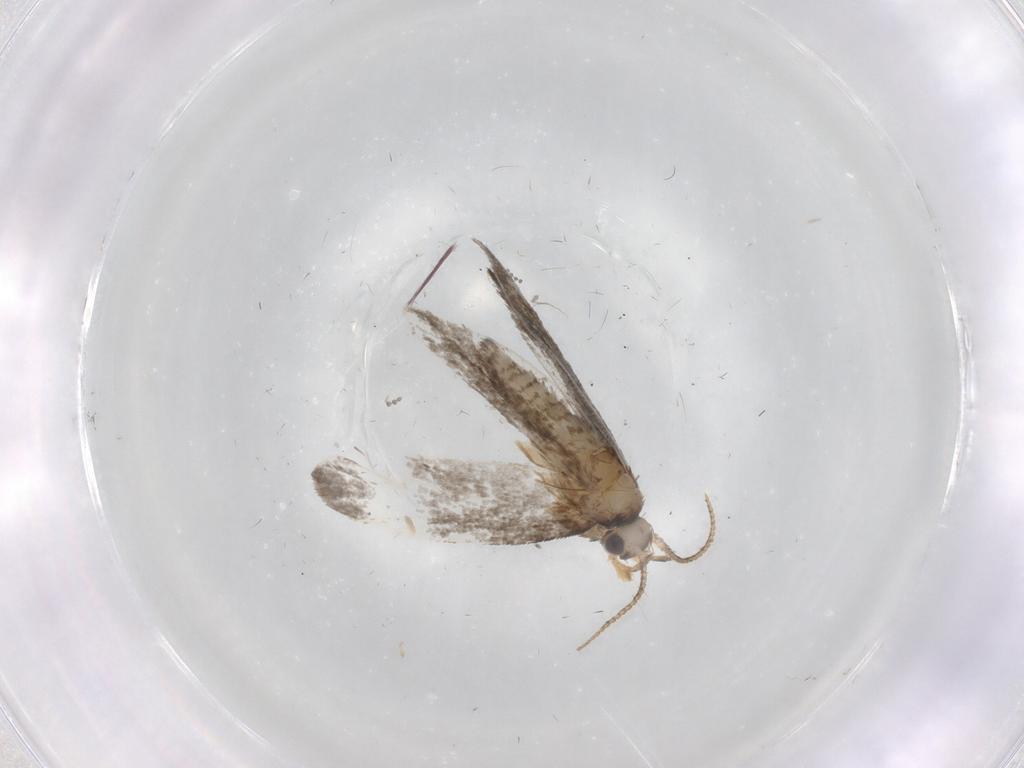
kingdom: Animalia
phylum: Arthropoda
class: Insecta
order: Lepidoptera
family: Psychidae
